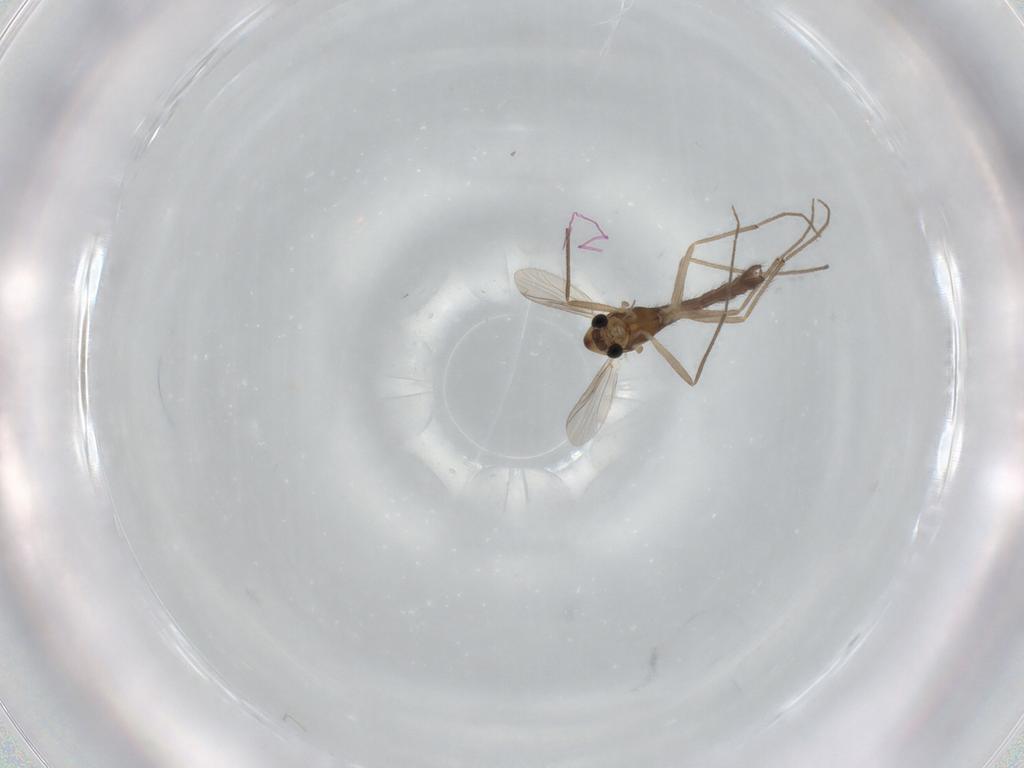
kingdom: Animalia
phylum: Arthropoda
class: Insecta
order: Diptera
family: Chironomidae
